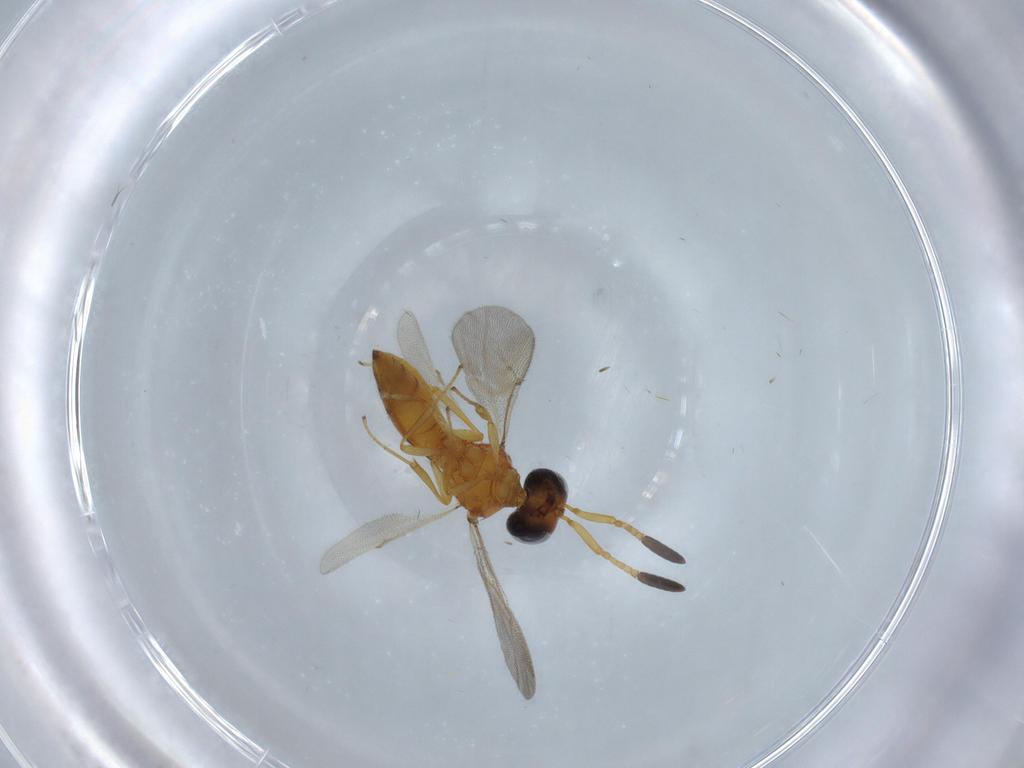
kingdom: Animalia
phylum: Arthropoda
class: Insecta
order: Hymenoptera
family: Scelionidae
